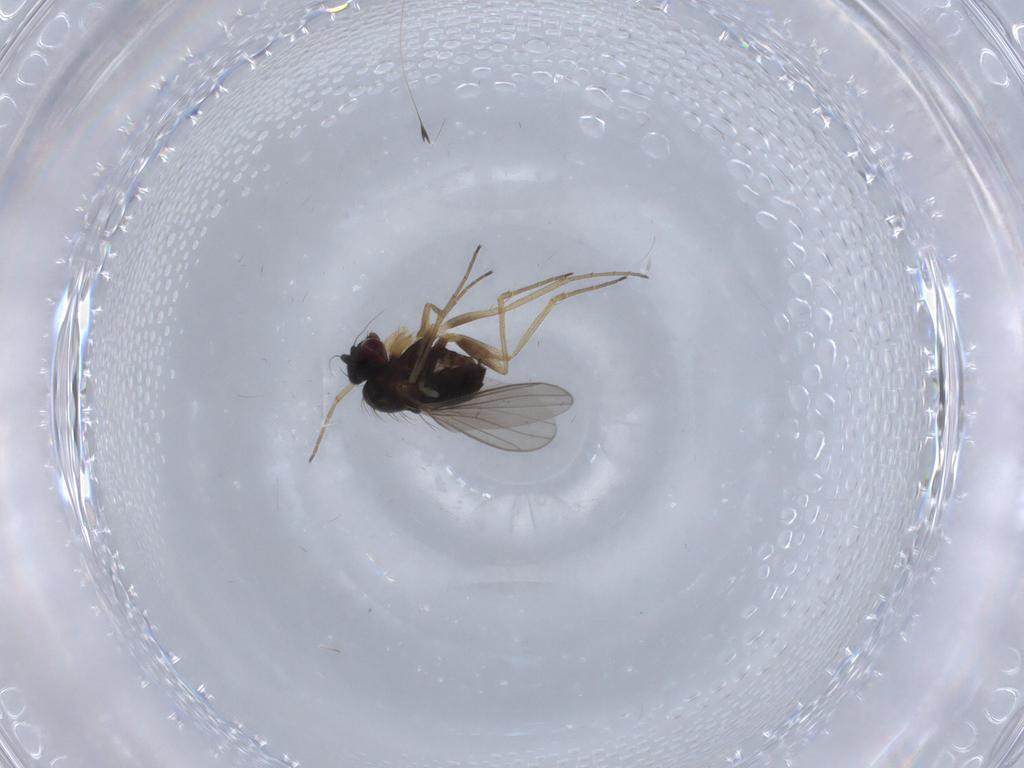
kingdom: Animalia
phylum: Arthropoda
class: Insecta
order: Diptera
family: Dolichopodidae
